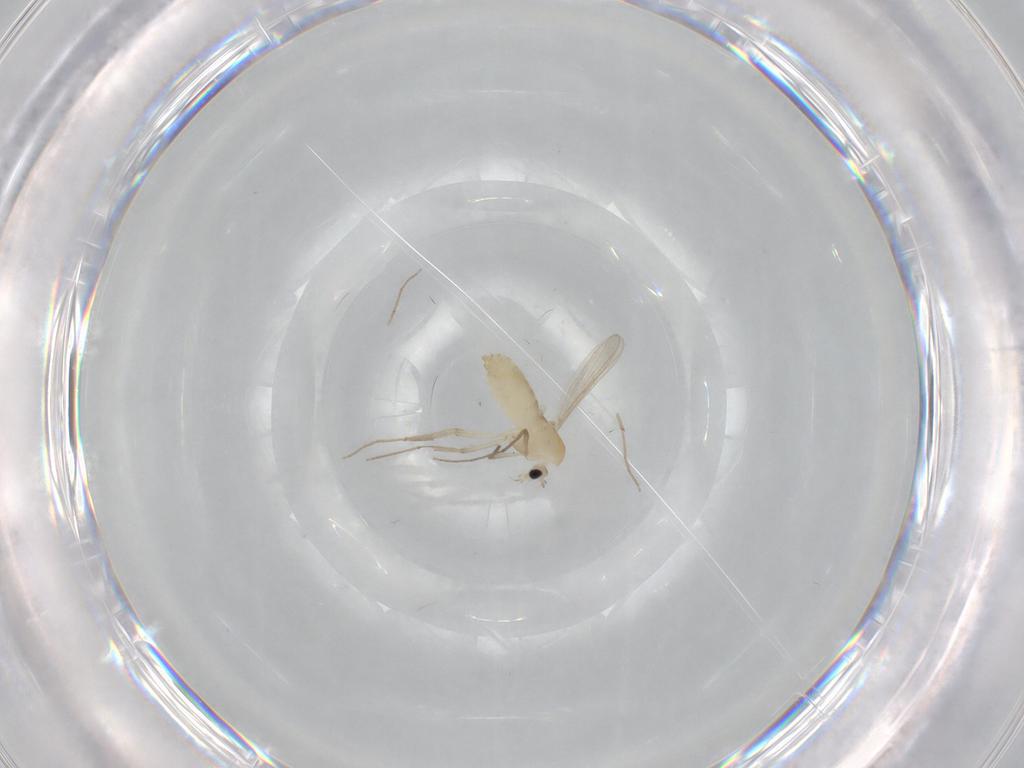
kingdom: Animalia
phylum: Arthropoda
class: Insecta
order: Diptera
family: Chironomidae
